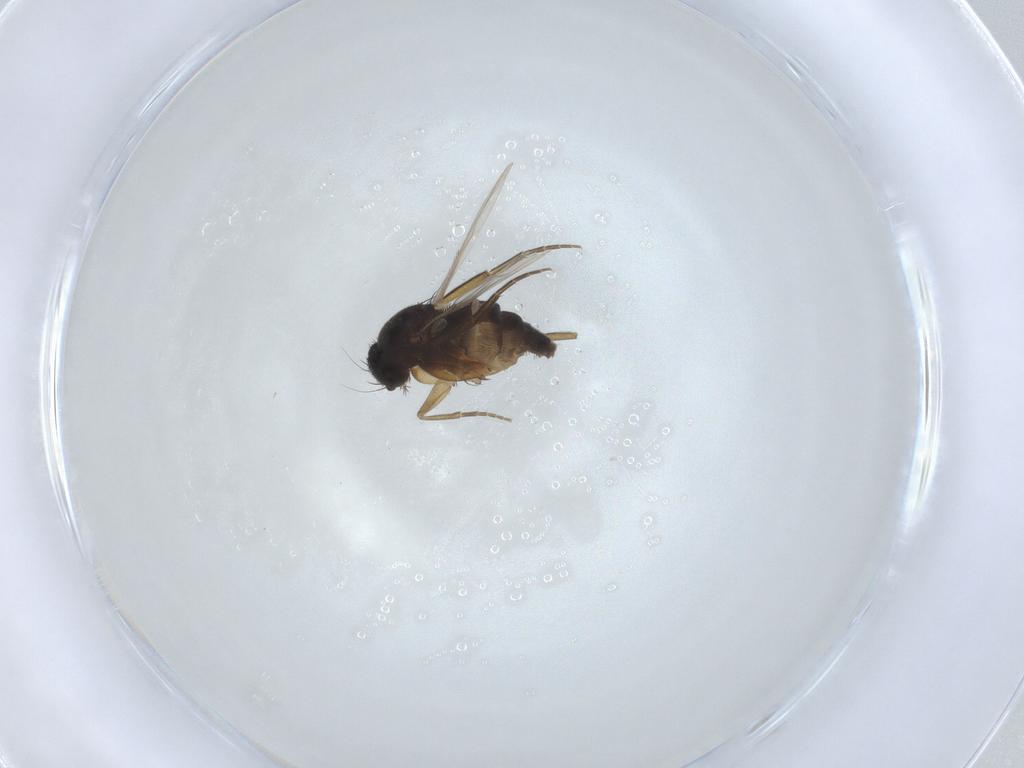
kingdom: Animalia
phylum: Arthropoda
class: Insecta
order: Diptera
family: Phoridae
